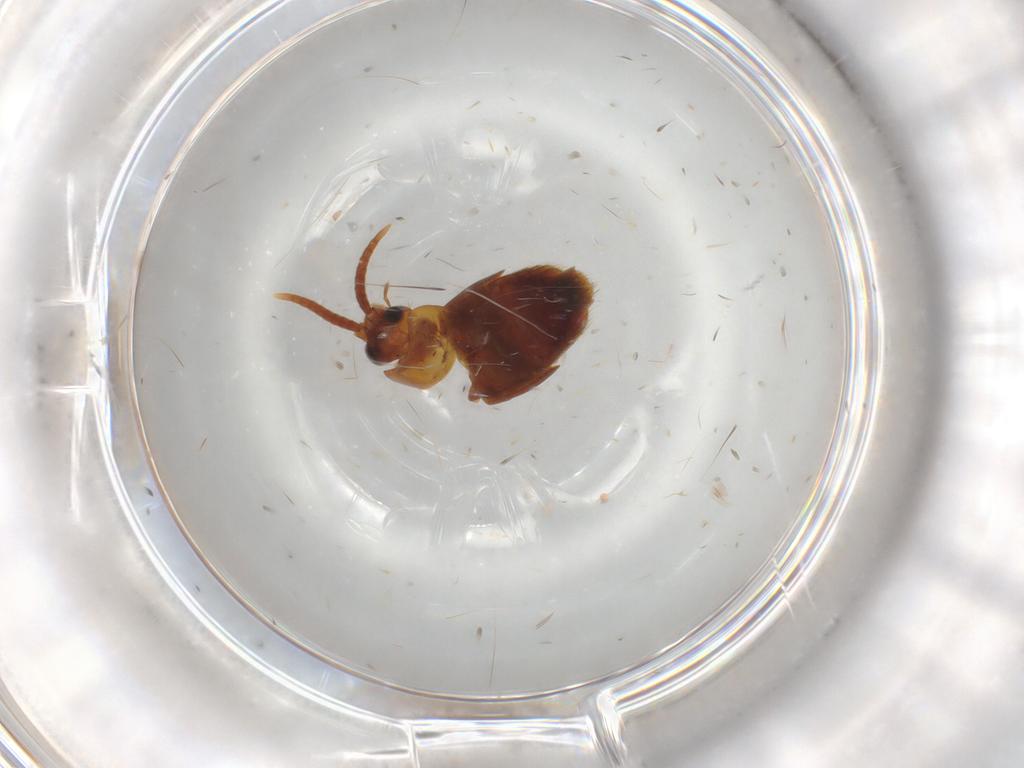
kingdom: Animalia
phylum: Arthropoda
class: Insecta
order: Coleoptera
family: Staphylinidae
